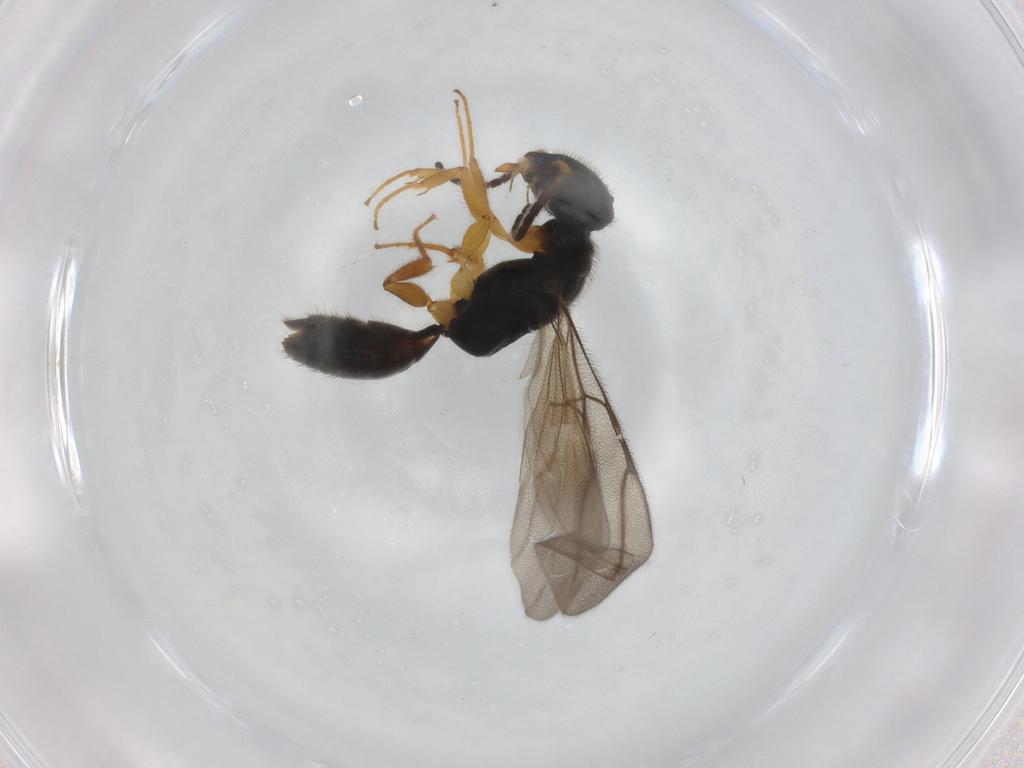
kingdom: Animalia
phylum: Arthropoda
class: Insecta
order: Hymenoptera
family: Bethylidae
